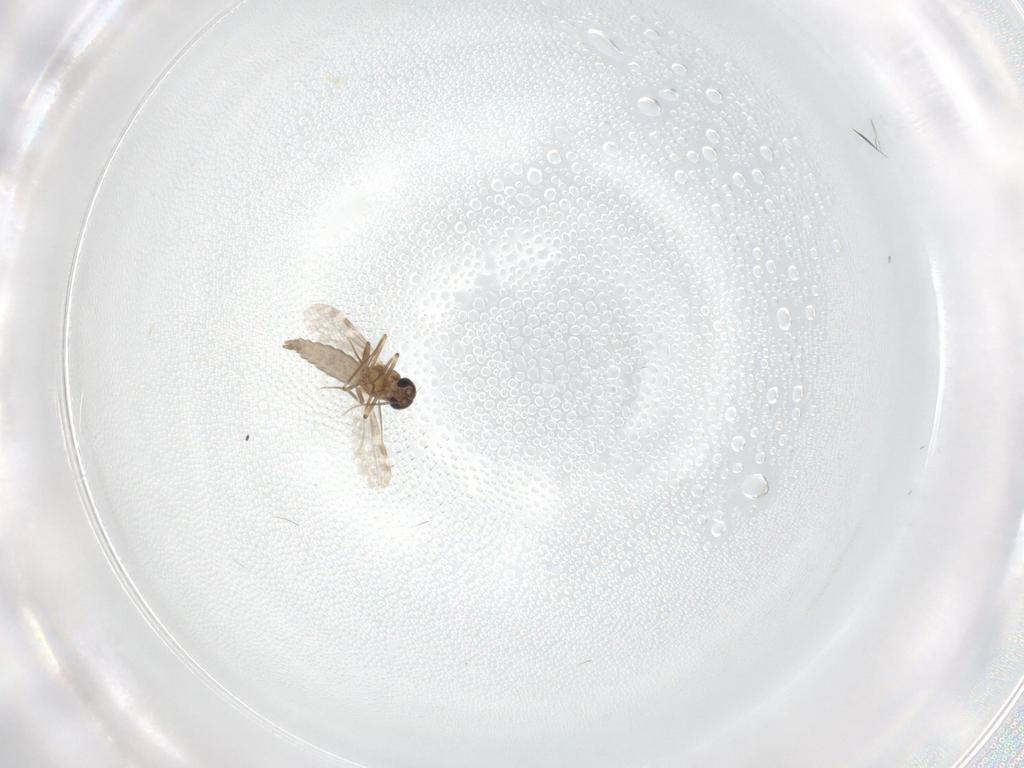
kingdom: Animalia
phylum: Arthropoda
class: Insecta
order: Diptera
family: Ceratopogonidae
